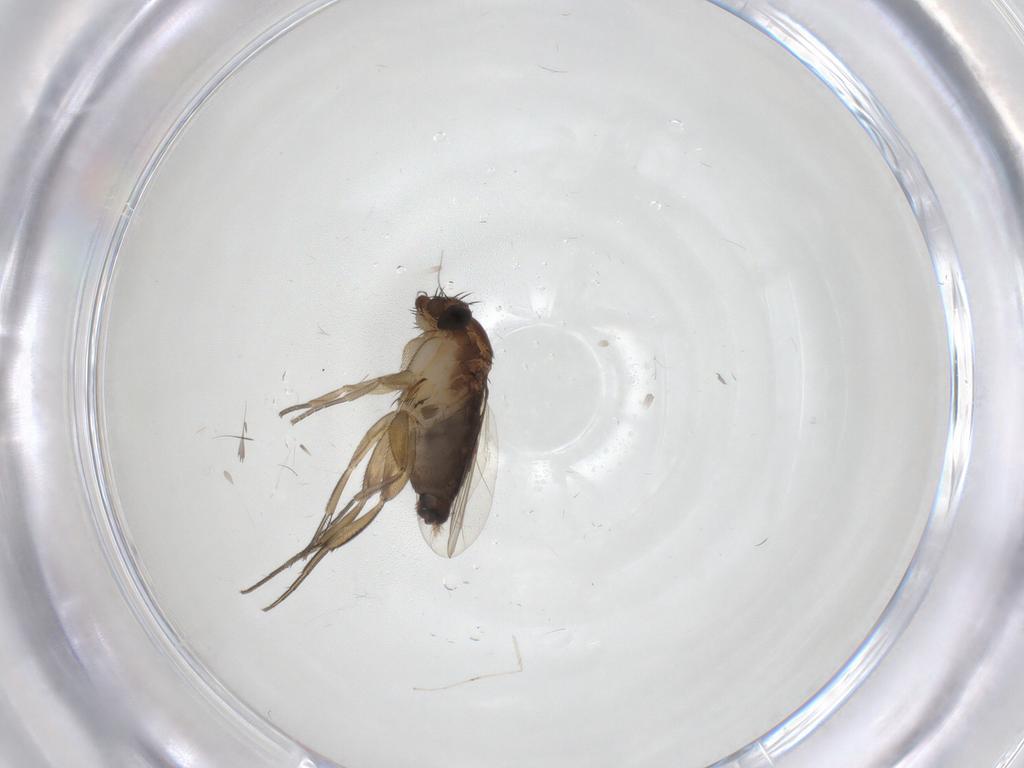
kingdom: Animalia
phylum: Arthropoda
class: Insecta
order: Diptera
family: Phoridae
